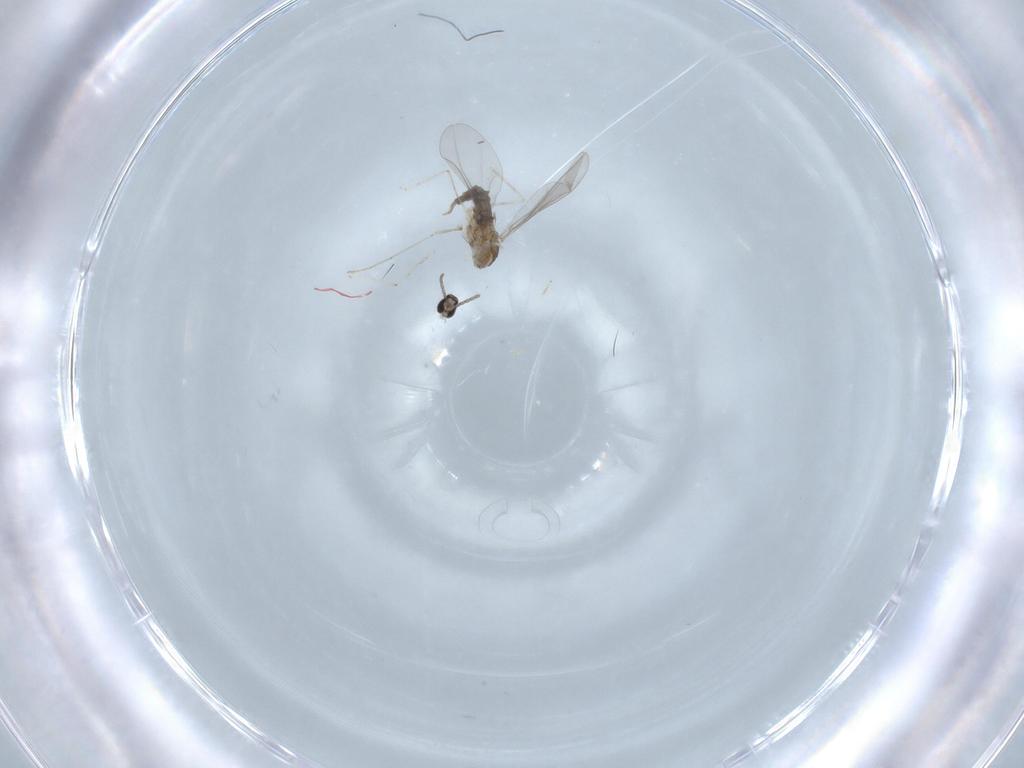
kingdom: Animalia
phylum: Arthropoda
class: Insecta
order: Diptera
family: Cecidomyiidae
